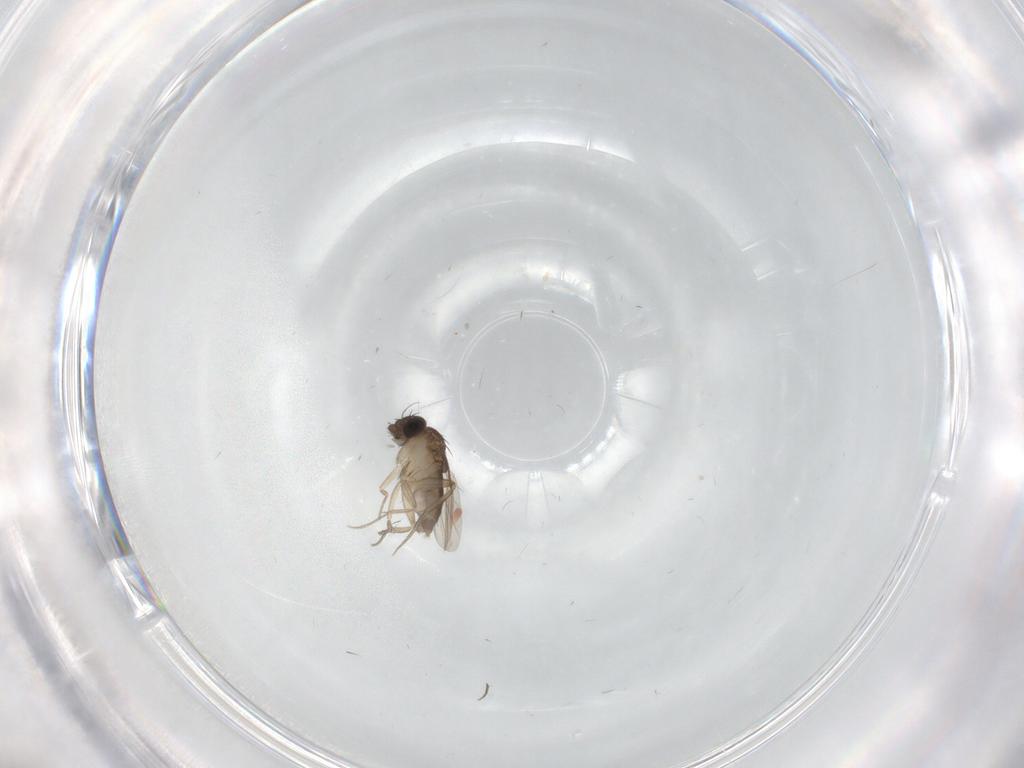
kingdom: Animalia
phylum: Arthropoda
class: Insecta
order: Diptera
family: Phoridae
